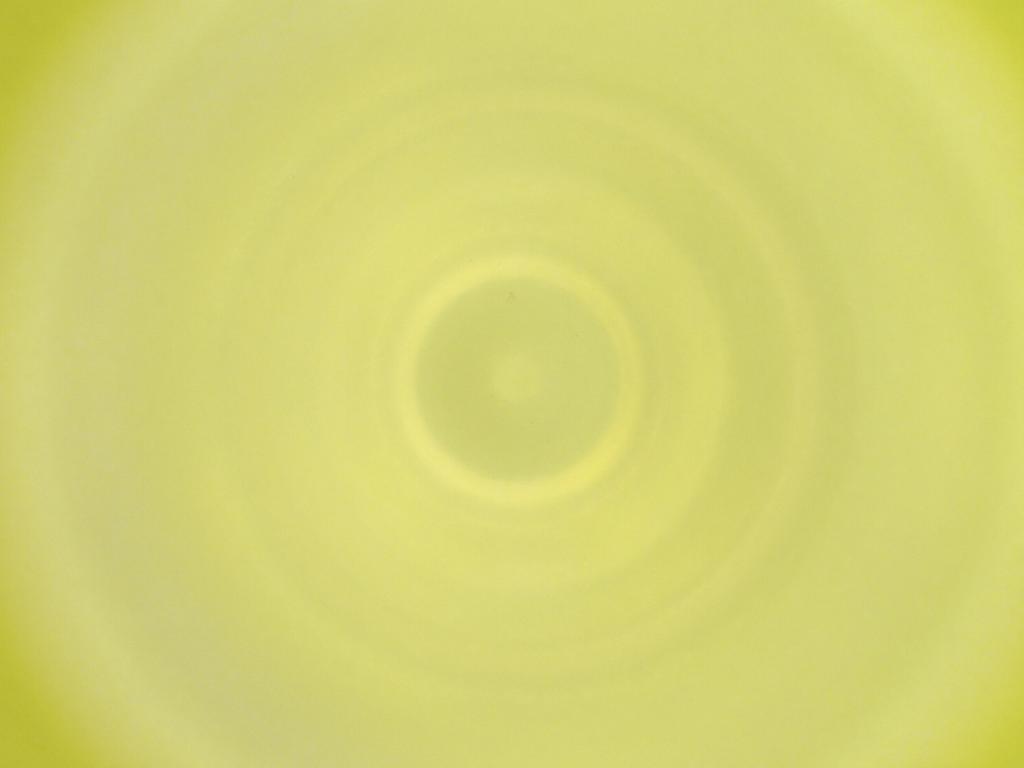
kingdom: Animalia
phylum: Arthropoda
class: Insecta
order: Diptera
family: Cecidomyiidae
